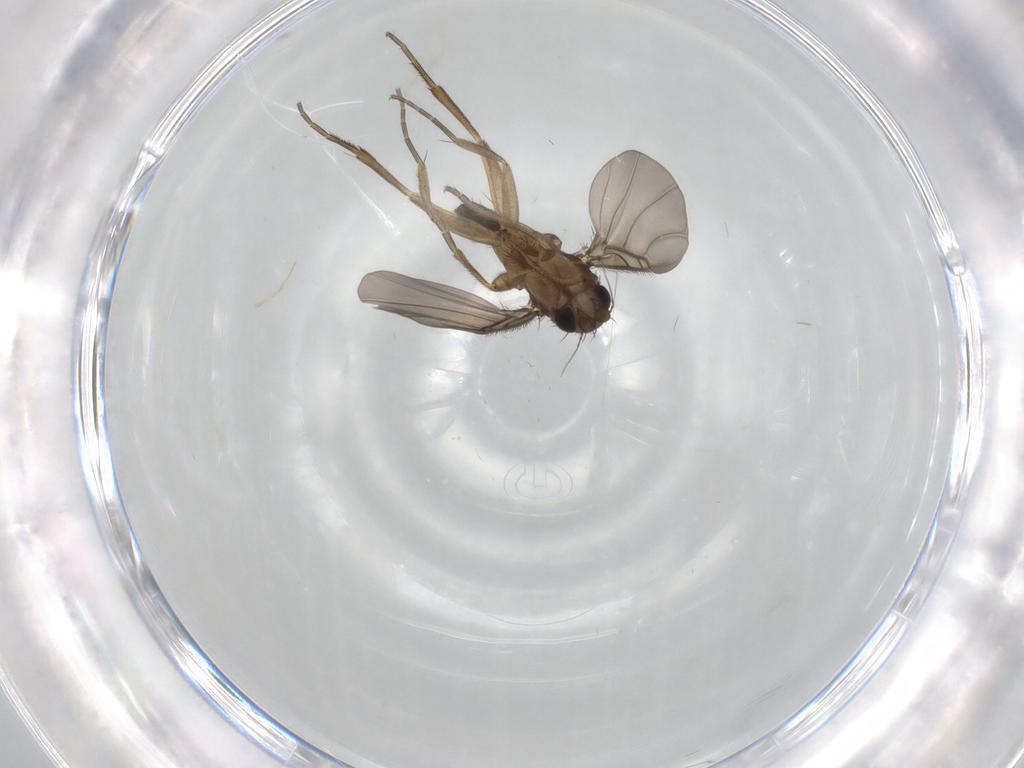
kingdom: Animalia
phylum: Arthropoda
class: Insecta
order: Diptera
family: Phoridae
